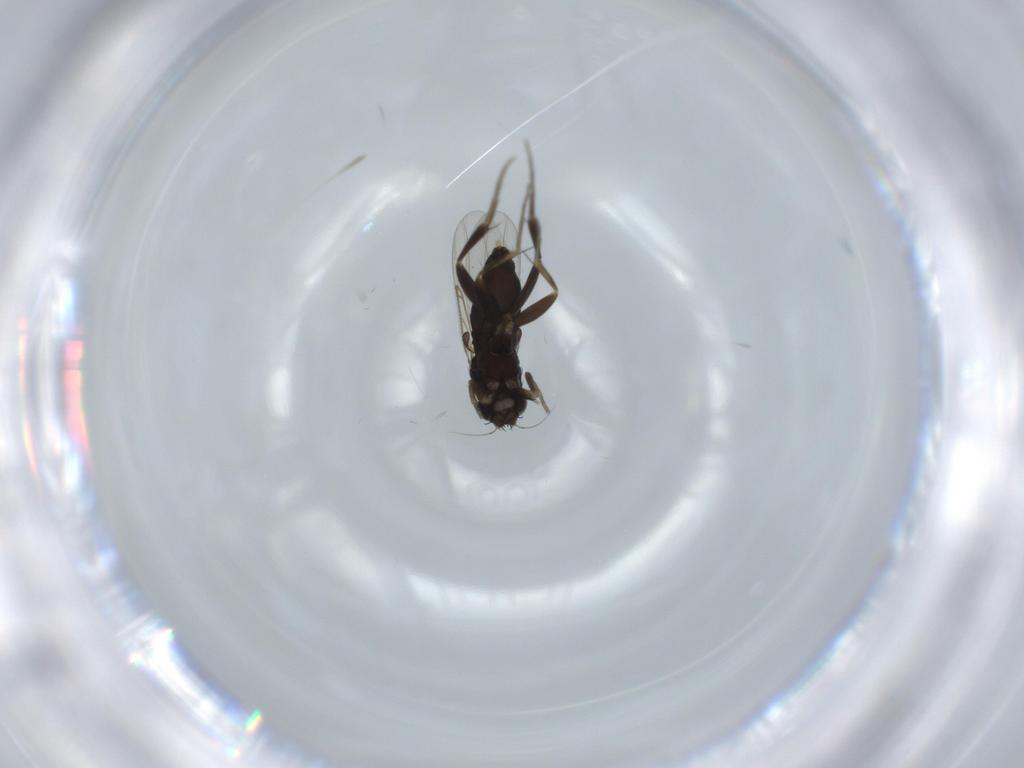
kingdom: Animalia
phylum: Arthropoda
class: Insecta
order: Diptera
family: Phoridae
